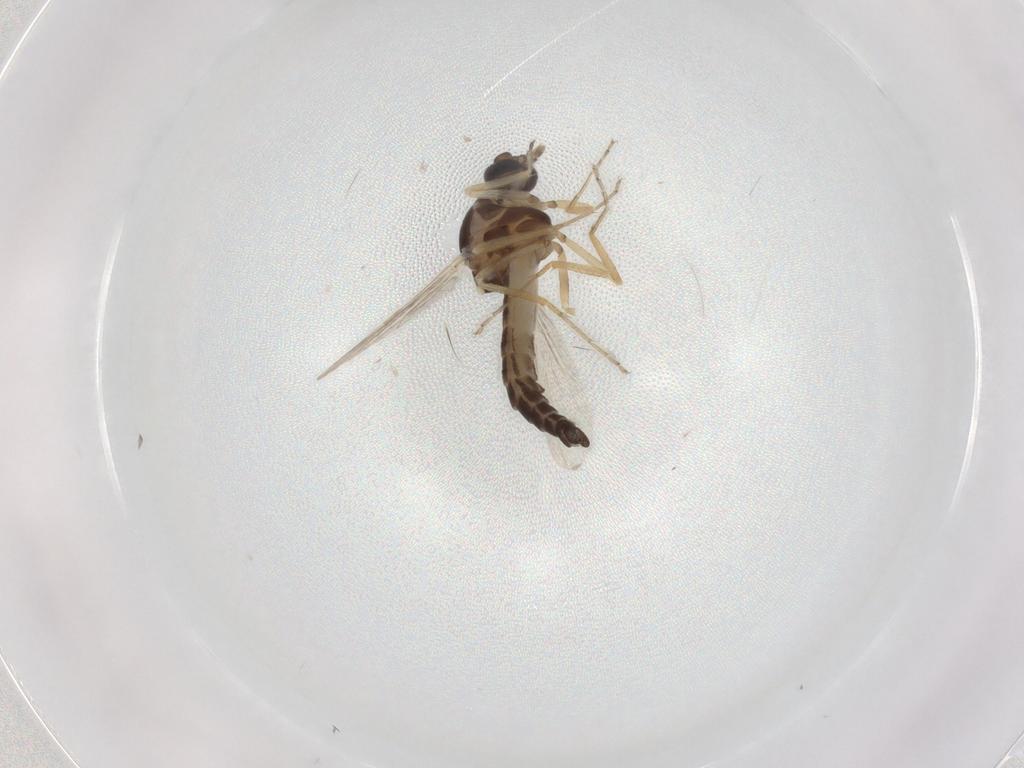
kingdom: Animalia
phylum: Arthropoda
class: Insecta
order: Diptera
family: Ceratopogonidae
